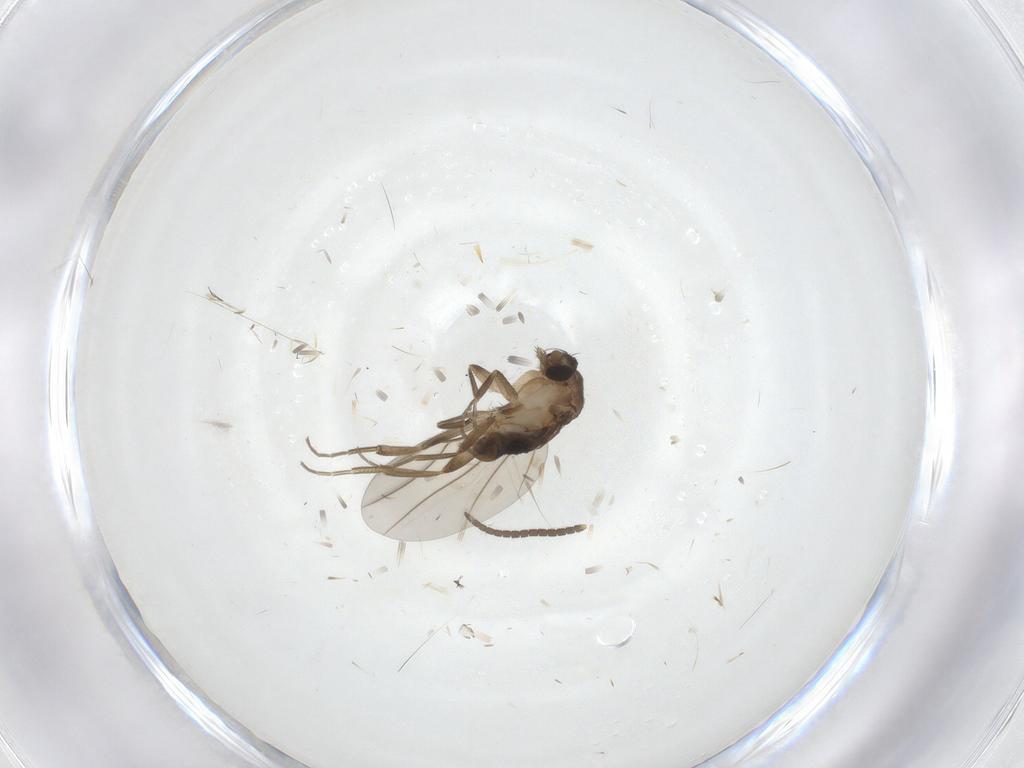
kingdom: Animalia
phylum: Arthropoda
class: Insecta
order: Diptera
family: Phoridae
